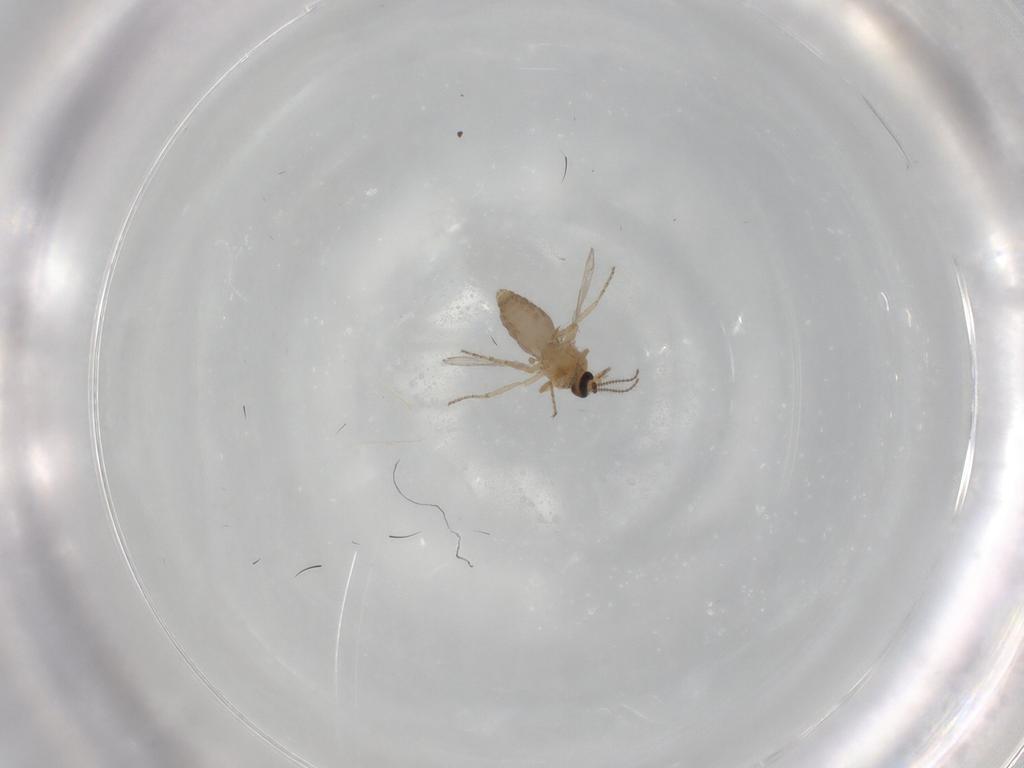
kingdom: Animalia
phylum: Arthropoda
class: Insecta
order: Diptera
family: Ceratopogonidae
